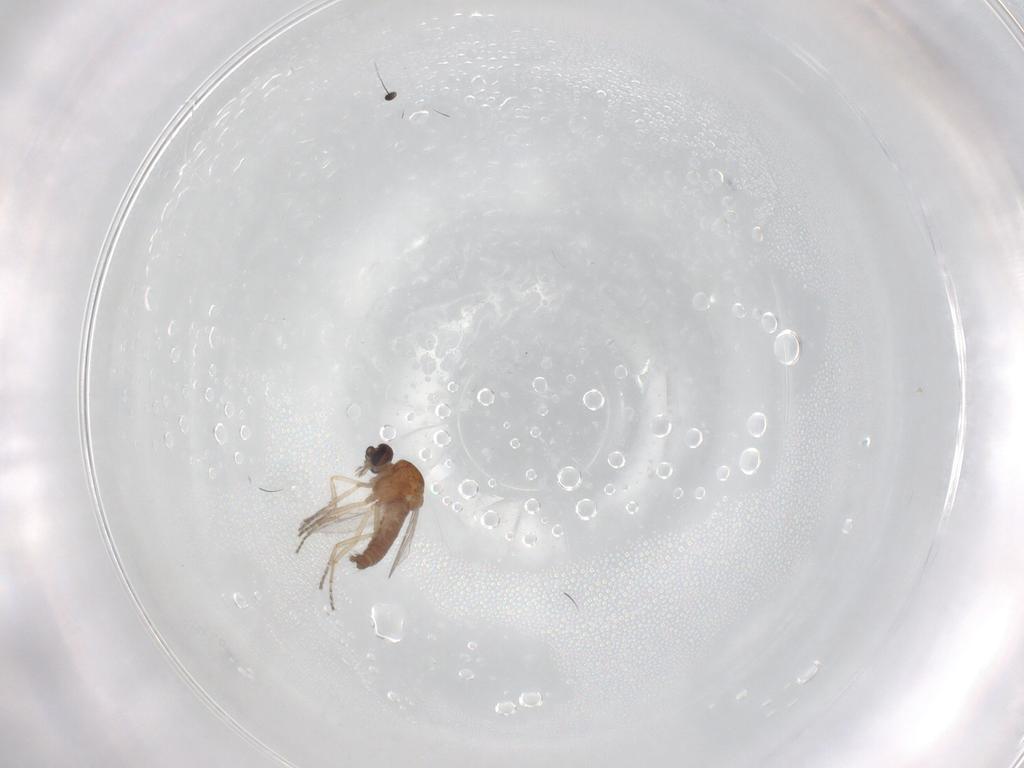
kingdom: Animalia
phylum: Arthropoda
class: Insecta
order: Diptera
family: Ceratopogonidae
